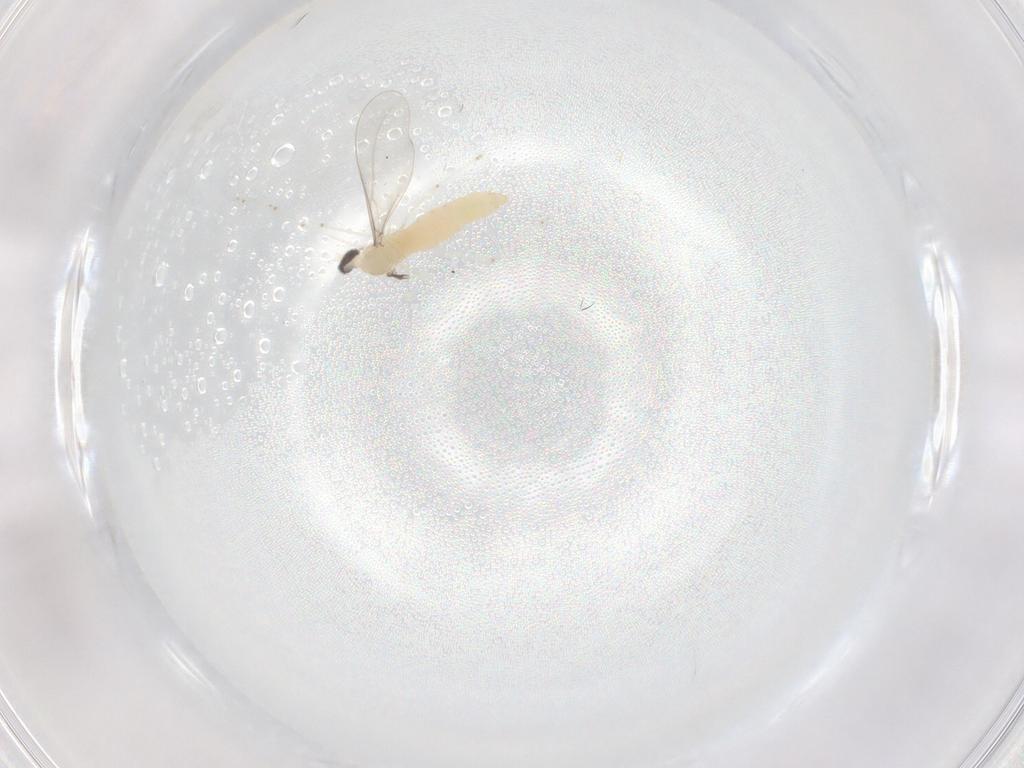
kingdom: Animalia
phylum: Arthropoda
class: Insecta
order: Diptera
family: Cecidomyiidae
